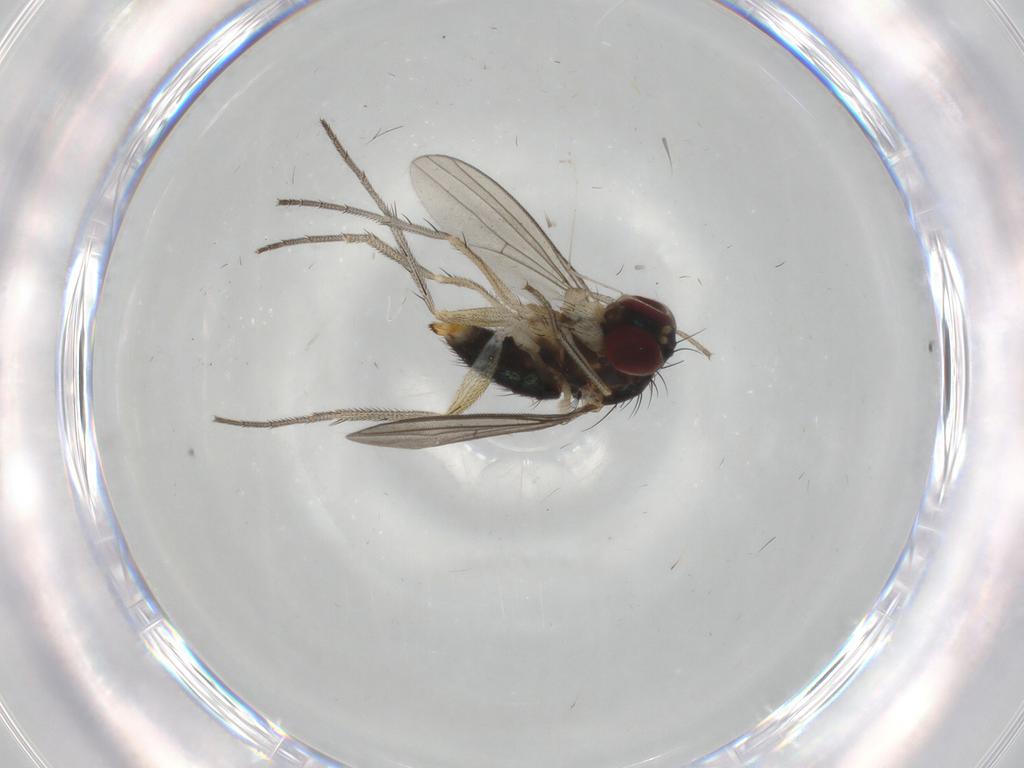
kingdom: Animalia
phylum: Arthropoda
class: Insecta
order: Diptera
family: Dolichopodidae
